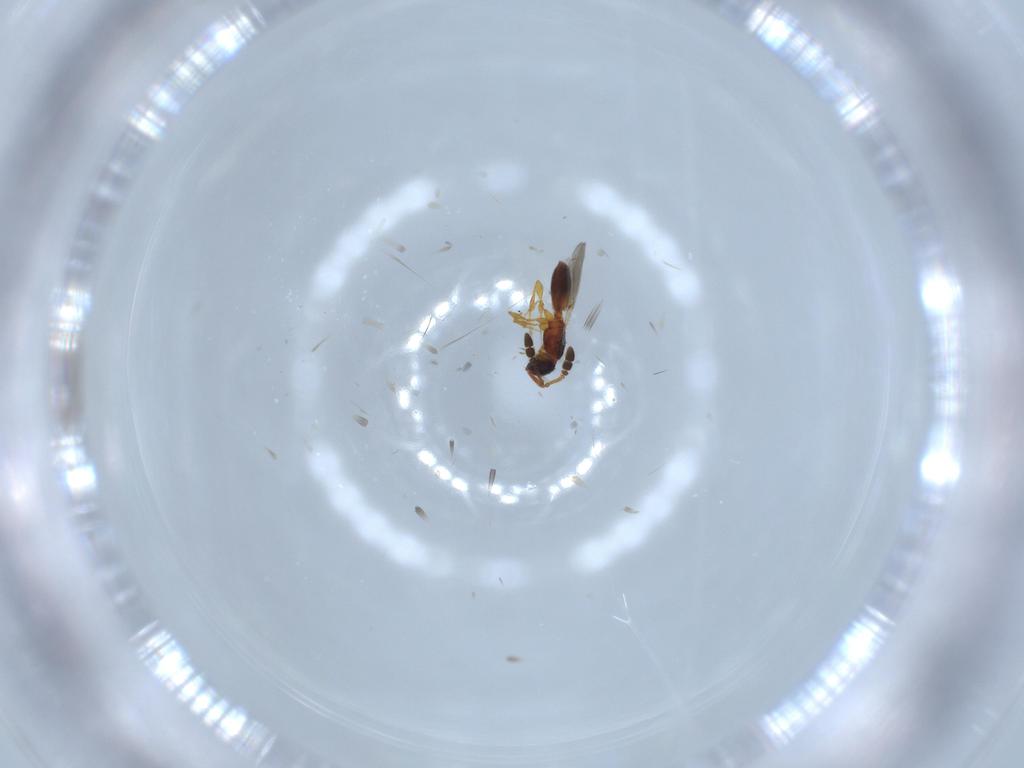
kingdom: Animalia
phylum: Arthropoda
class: Insecta
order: Hymenoptera
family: Diapriidae
